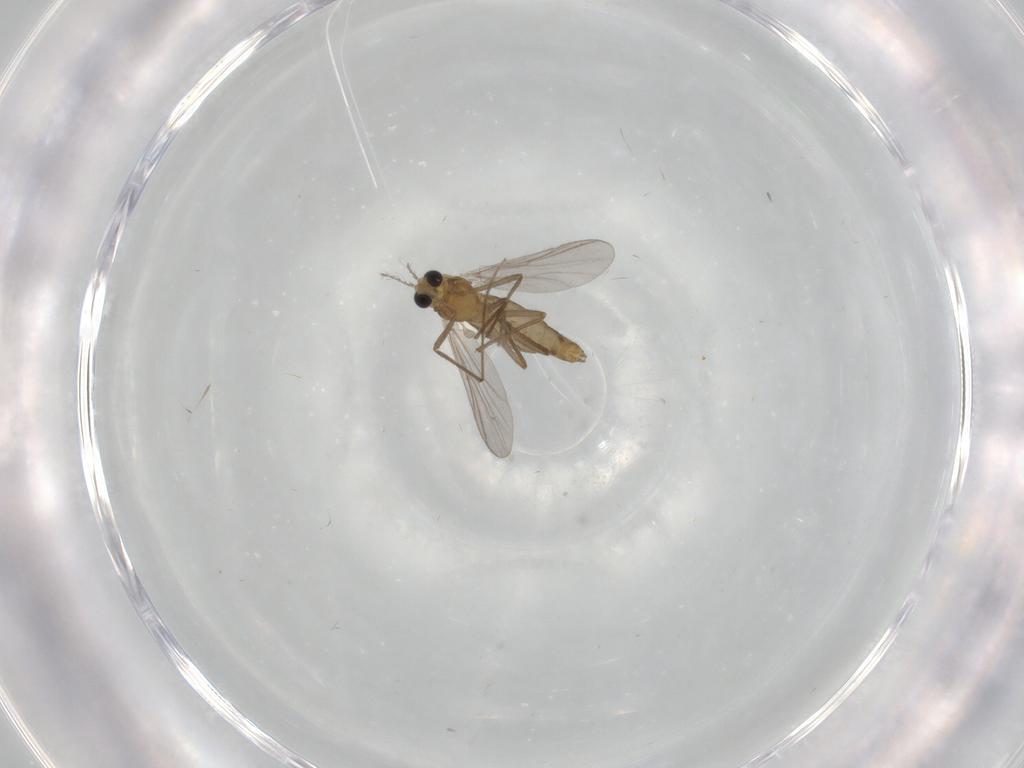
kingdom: Animalia
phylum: Arthropoda
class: Insecta
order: Diptera
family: Chironomidae
